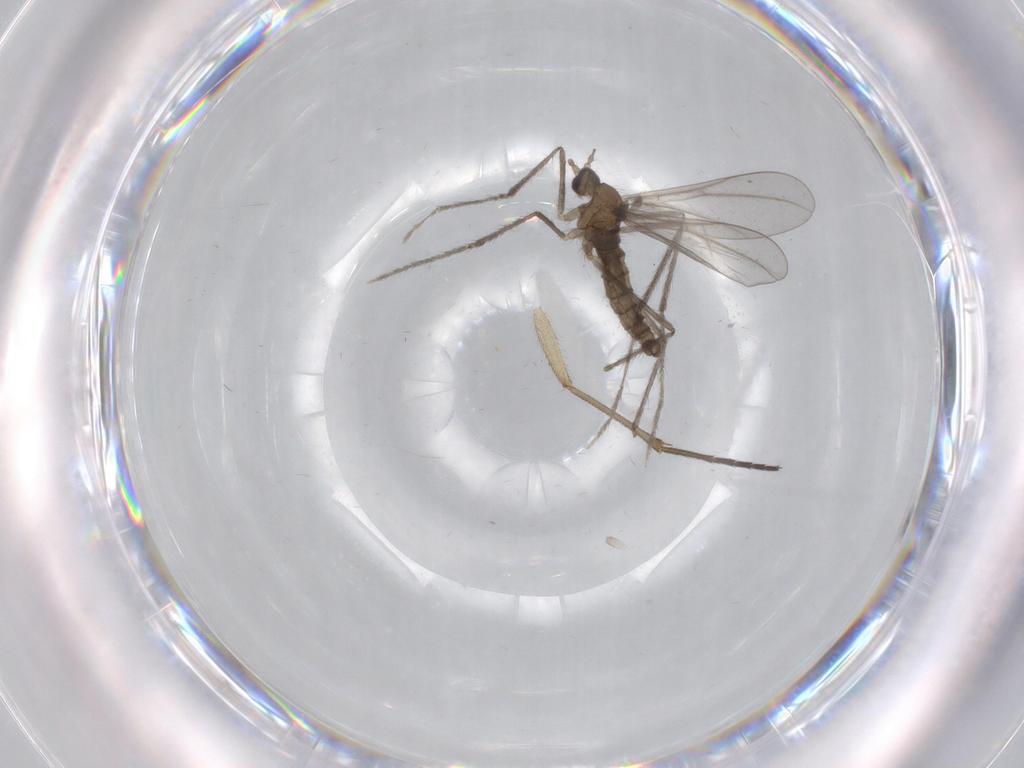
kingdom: Animalia
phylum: Arthropoda
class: Insecta
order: Diptera
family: Cecidomyiidae
